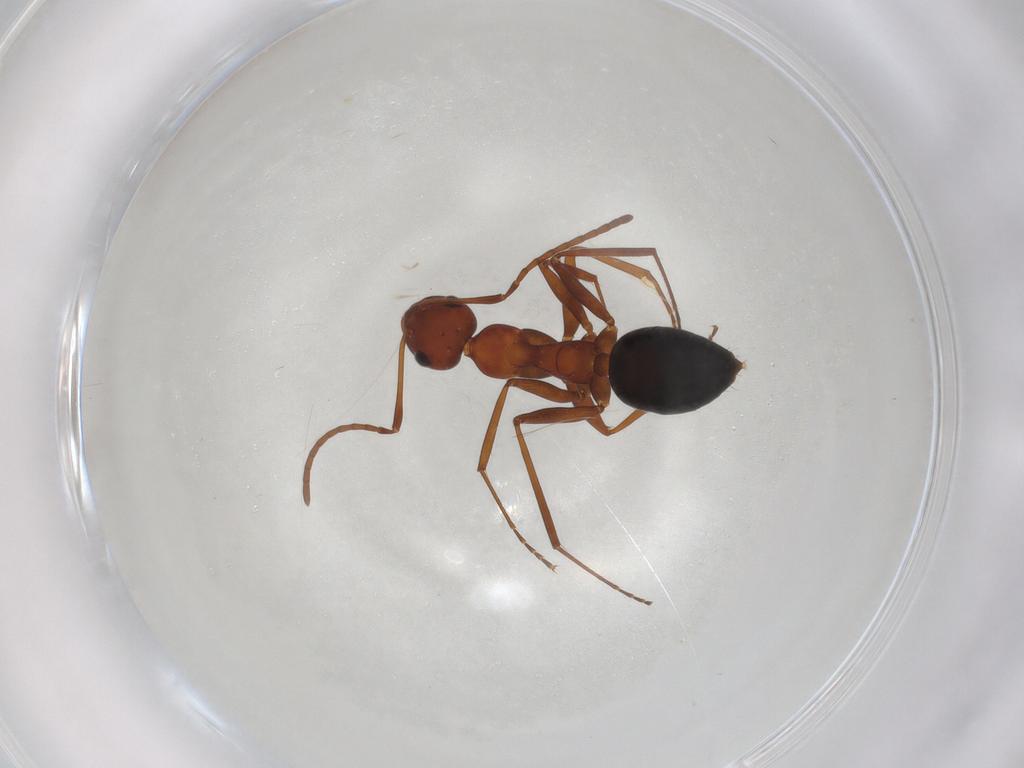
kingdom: Animalia
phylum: Arthropoda
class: Insecta
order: Hymenoptera
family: Formicidae
